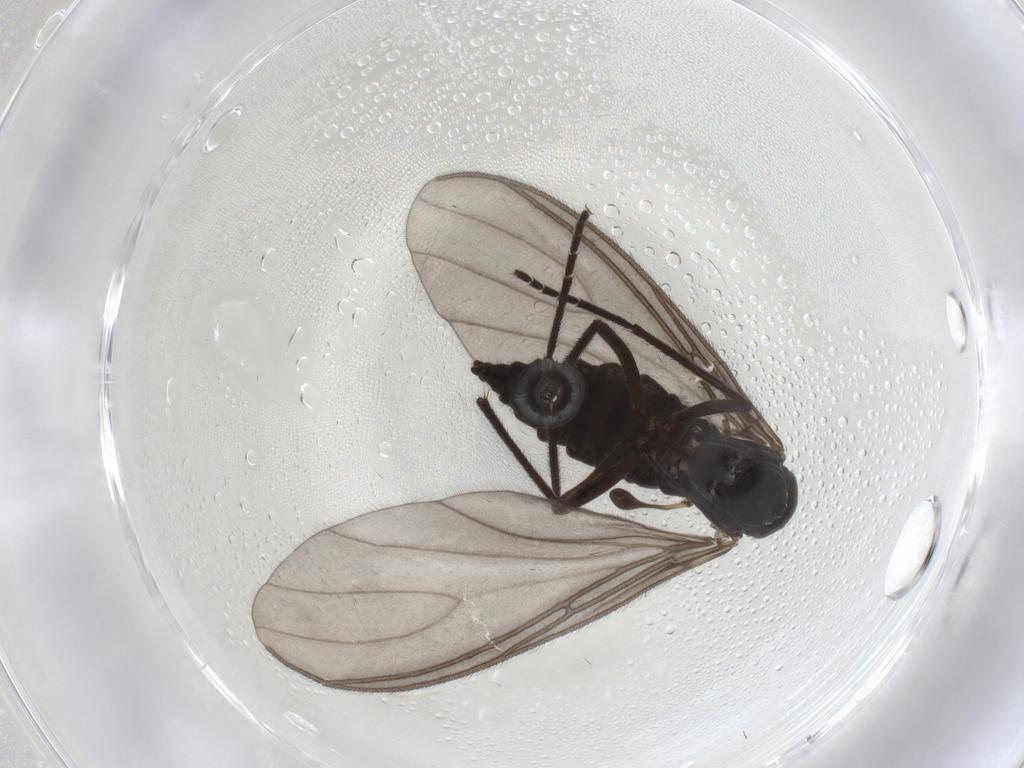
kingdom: Animalia
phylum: Arthropoda
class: Insecta
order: Diptera
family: Sciaridae
